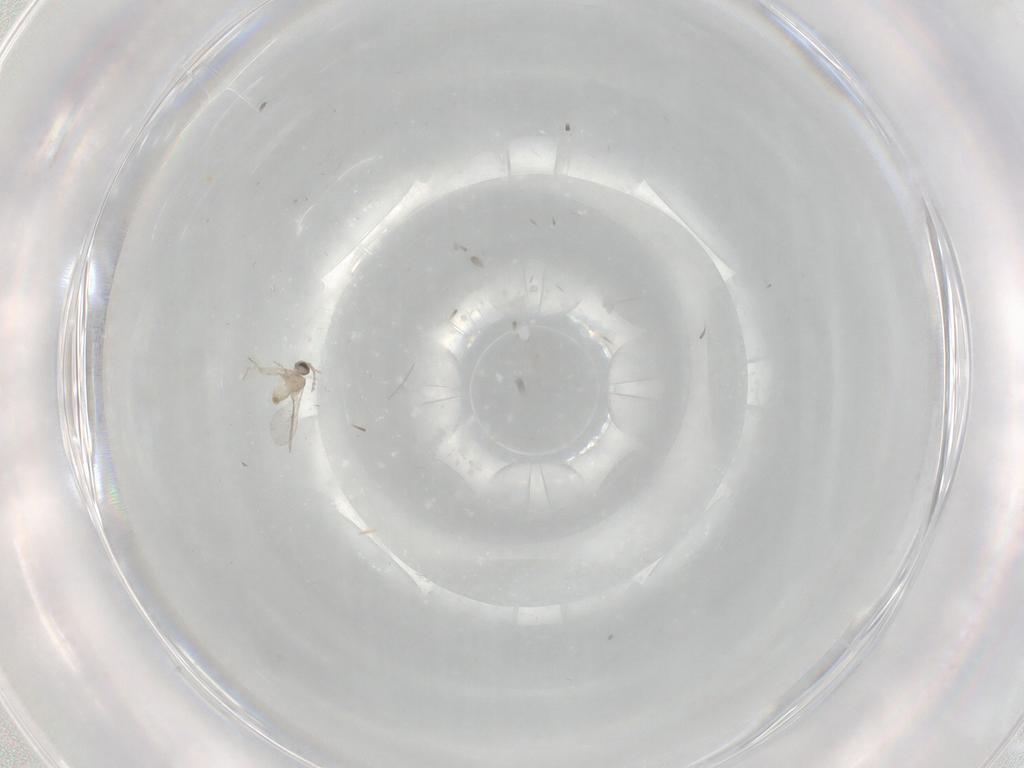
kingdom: Animalia
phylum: Arthropoda
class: Insecta
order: Diptera
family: Cecidomyiidae
